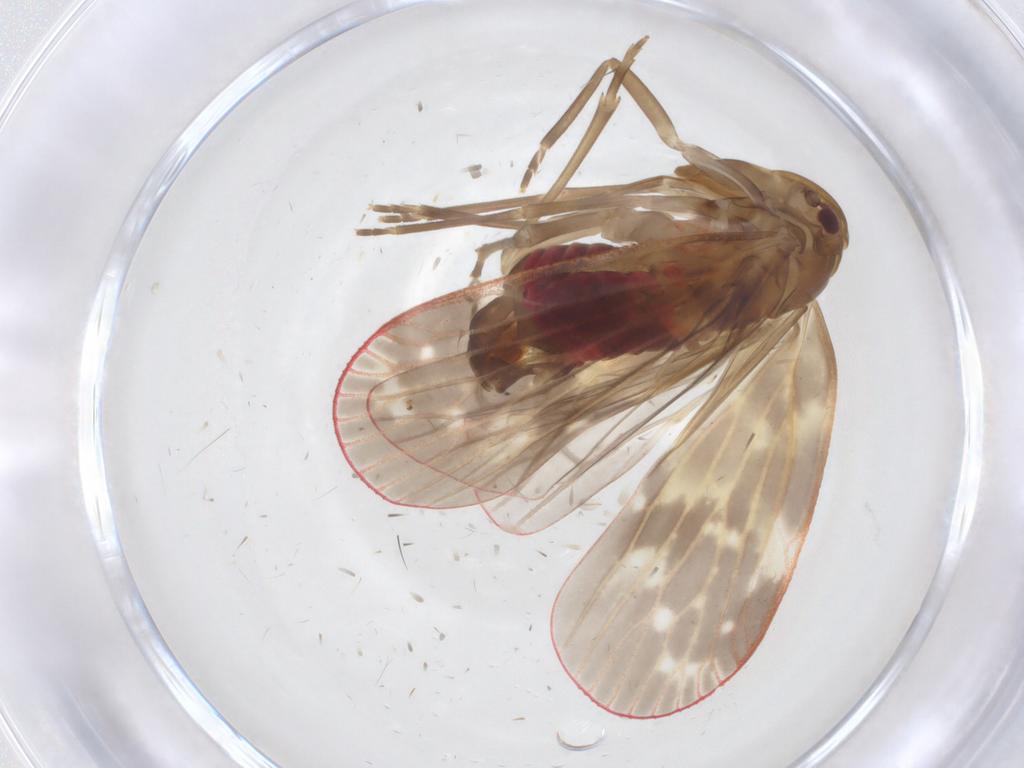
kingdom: Animalia
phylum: Arthropoda
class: Insecta
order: Hemiptera
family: Achilidae
